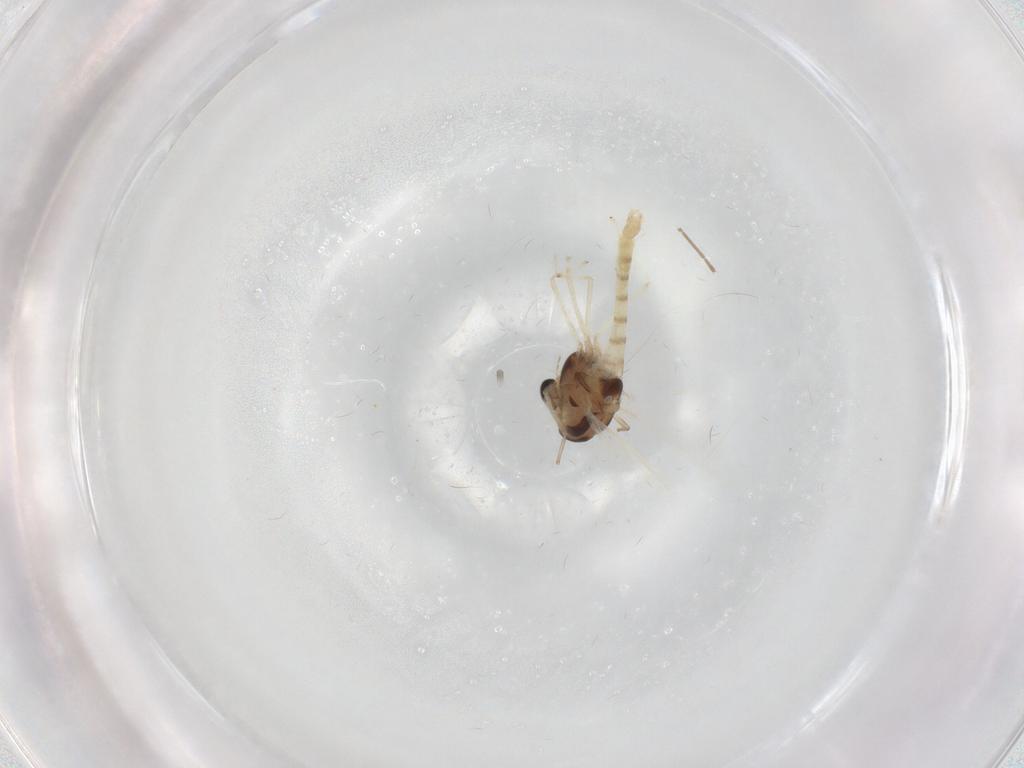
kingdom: Animalia
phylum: Arthropoda
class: Insecta
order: Diptera
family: Chironomidae
